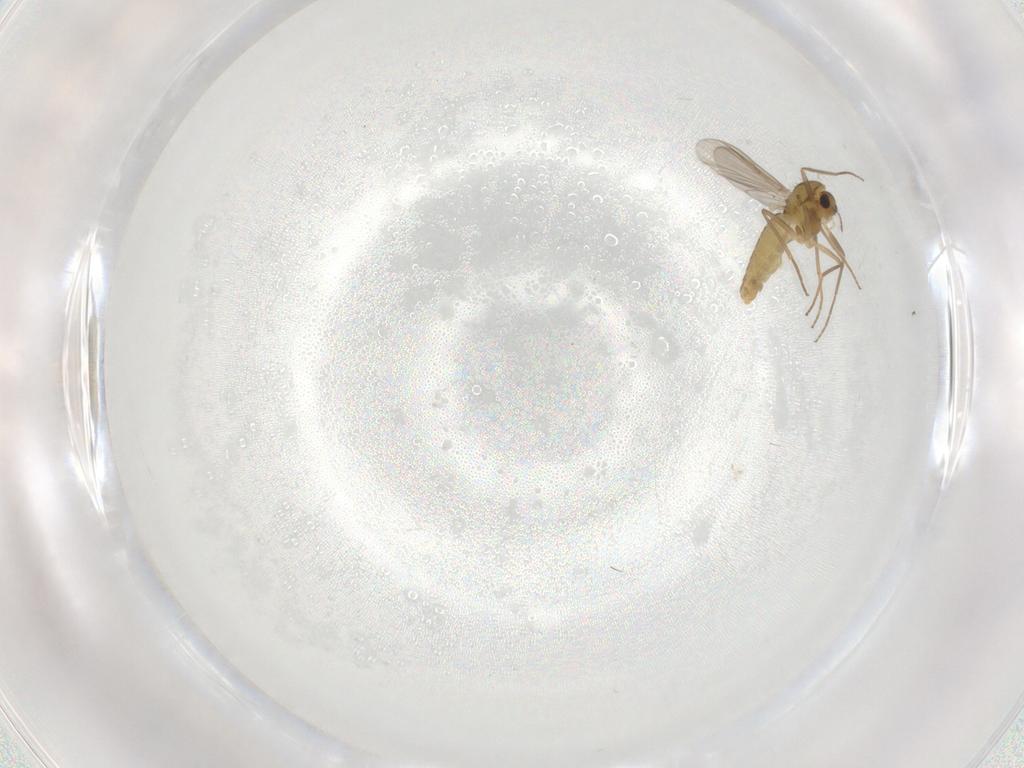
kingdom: Animalia
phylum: Arthropoda
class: Insecta
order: Diptera
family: Chironomidae
